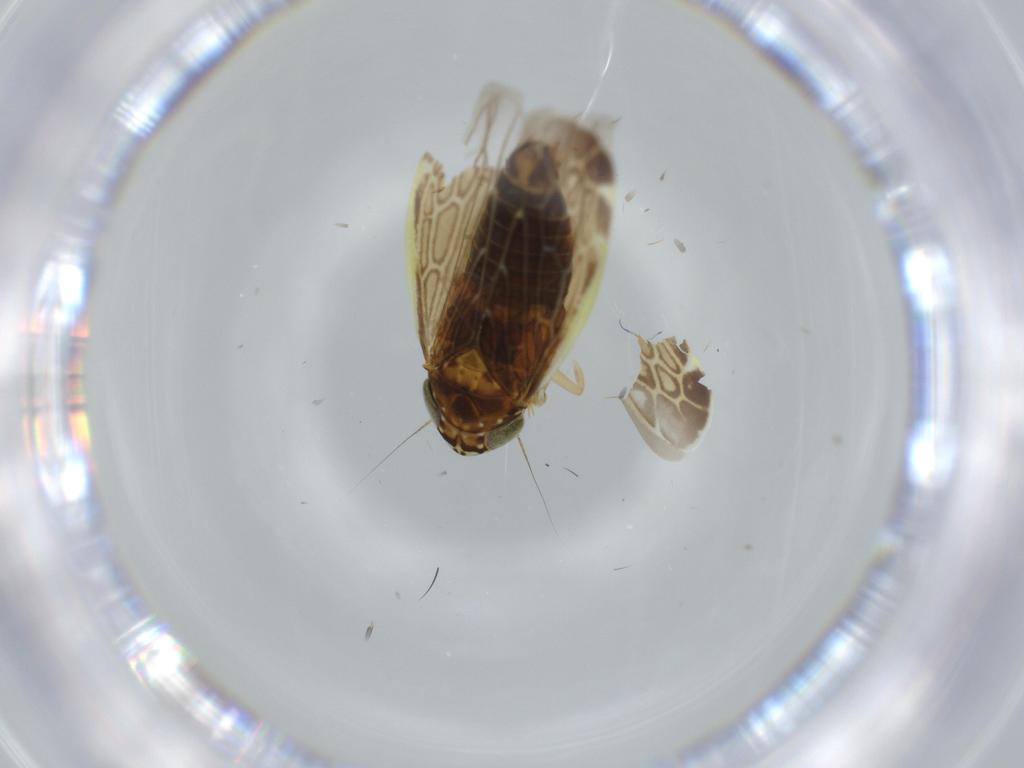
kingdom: Animalia
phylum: Arthropoda
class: Insecta
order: Hemiptera
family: Cicadellidae
